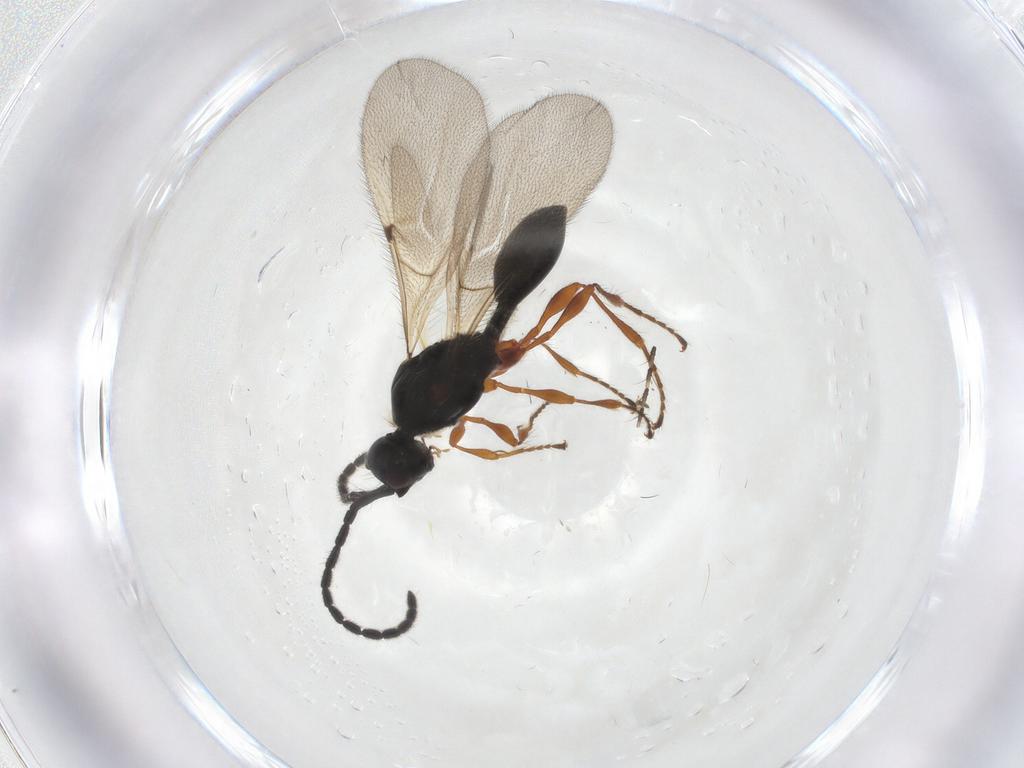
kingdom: Animalia
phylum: Arthropoda
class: Insecta
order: Hymenoptera
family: Diapriidae
